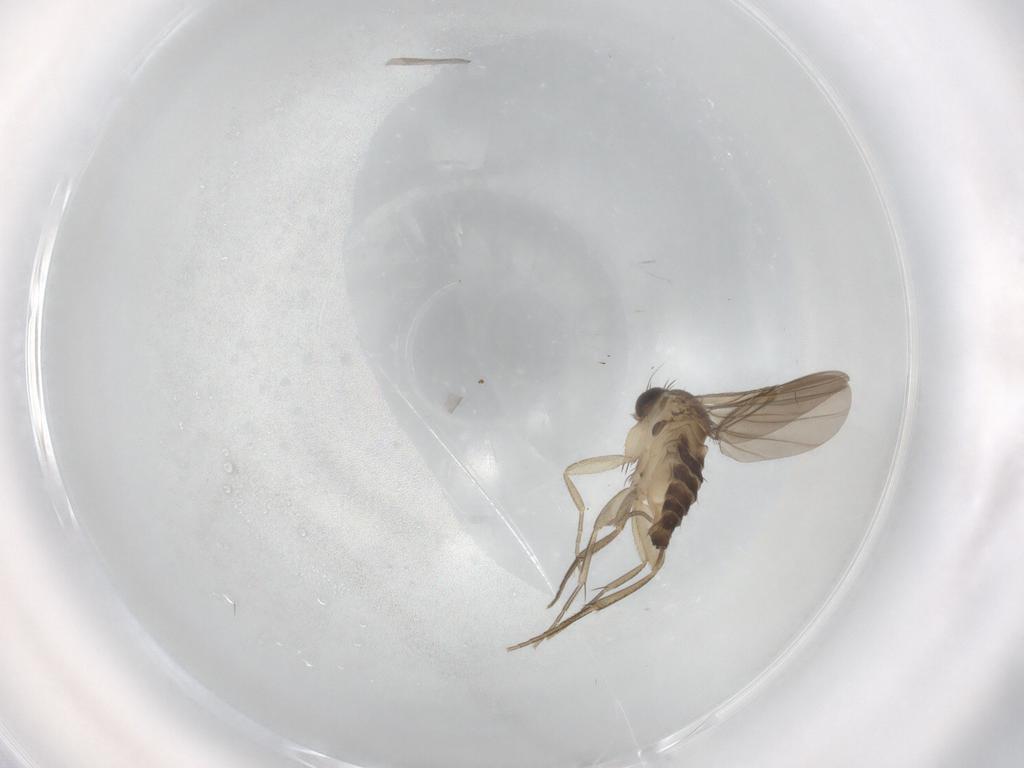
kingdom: Animalia
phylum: Arthropoda
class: Insecta
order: Diptera
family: Phoridae
